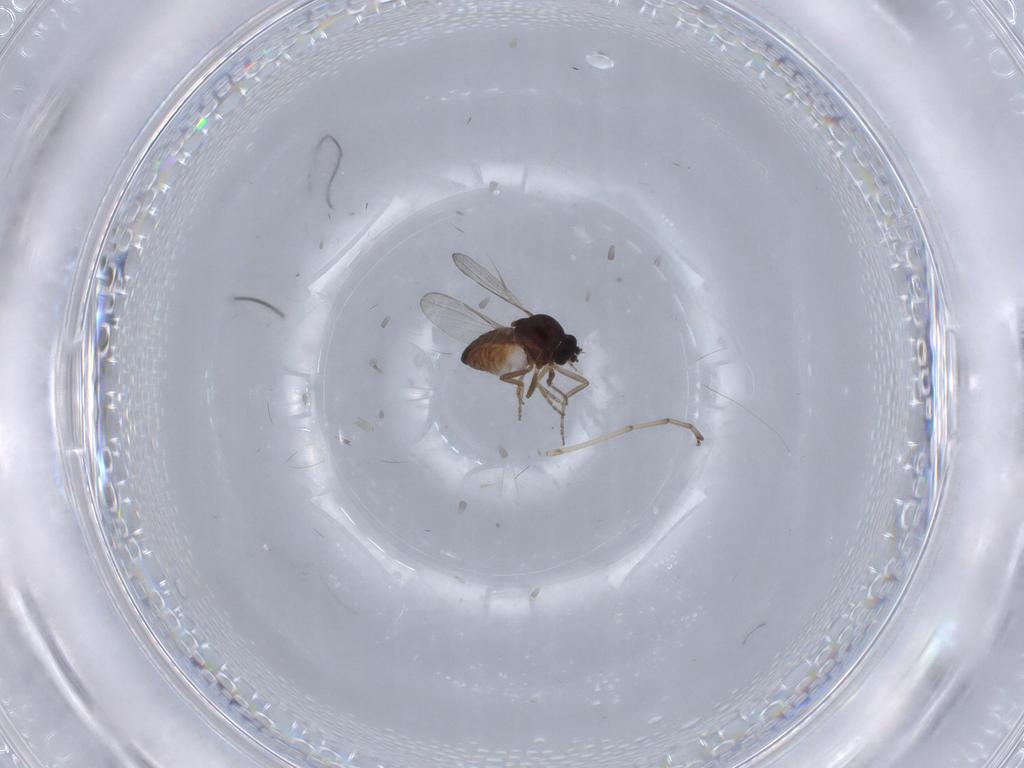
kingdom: Animalia
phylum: Arthropoda
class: Insecta
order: Diptera
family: Ceratopogonidae
